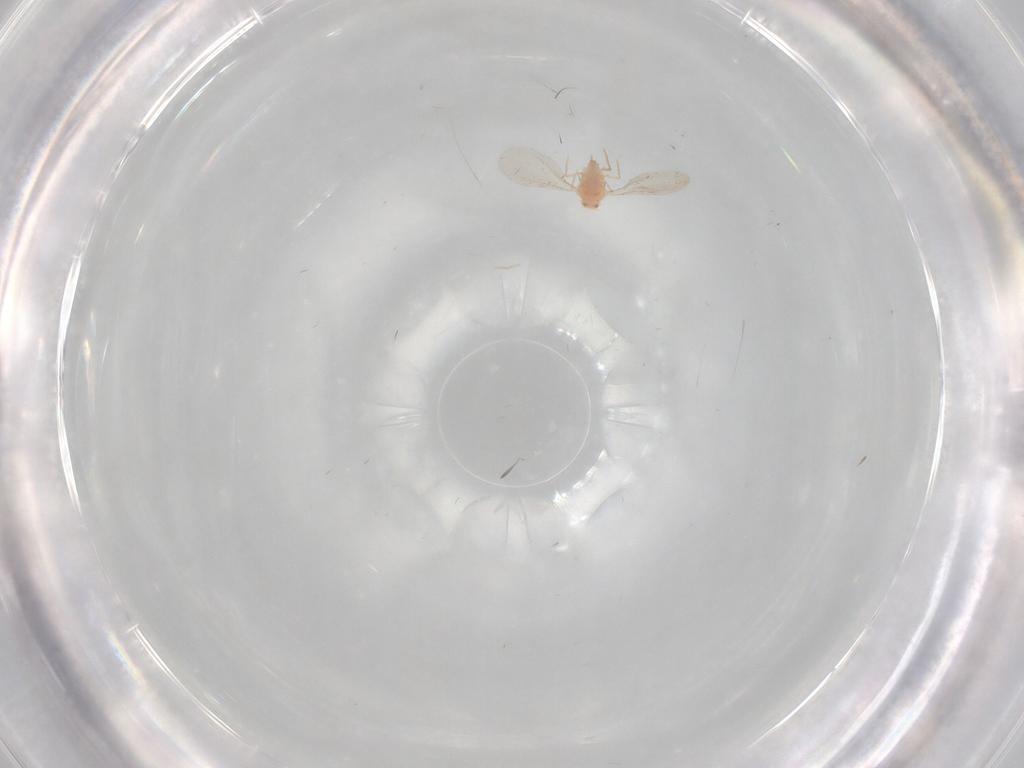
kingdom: Animalia
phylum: Arthropoda
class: Insecta
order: Hemiptera
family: Coccoidea_incertae_sedis
